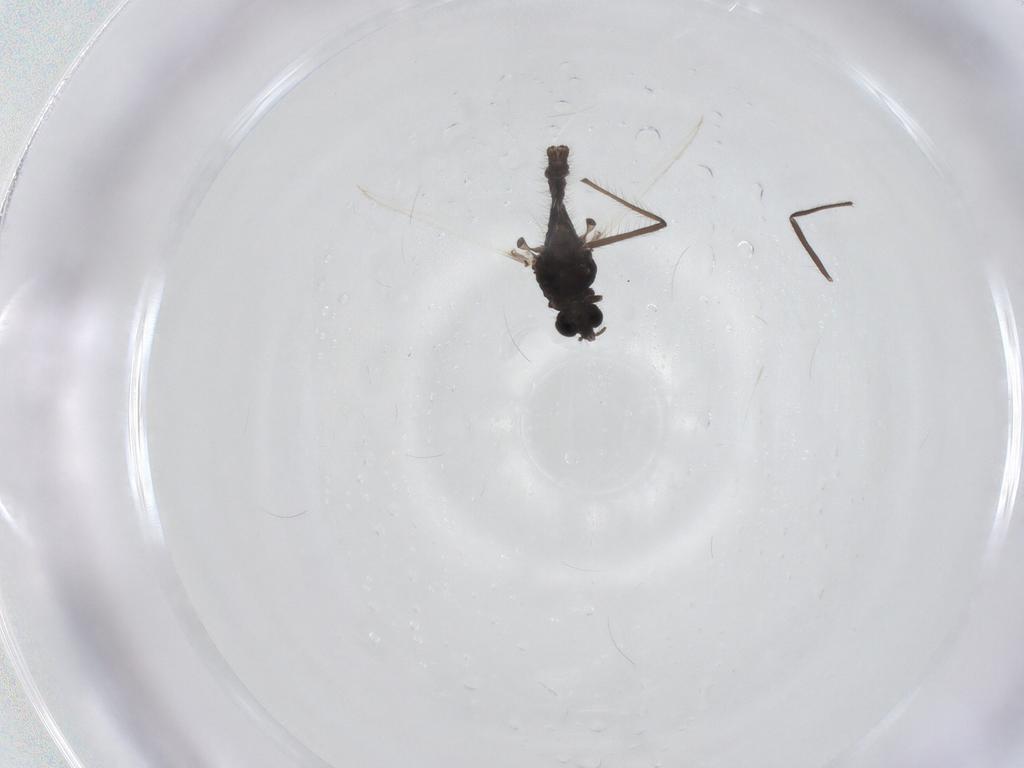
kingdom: Animalia
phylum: Arthropoda
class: Insecta
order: Diptera
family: Chironomidae
